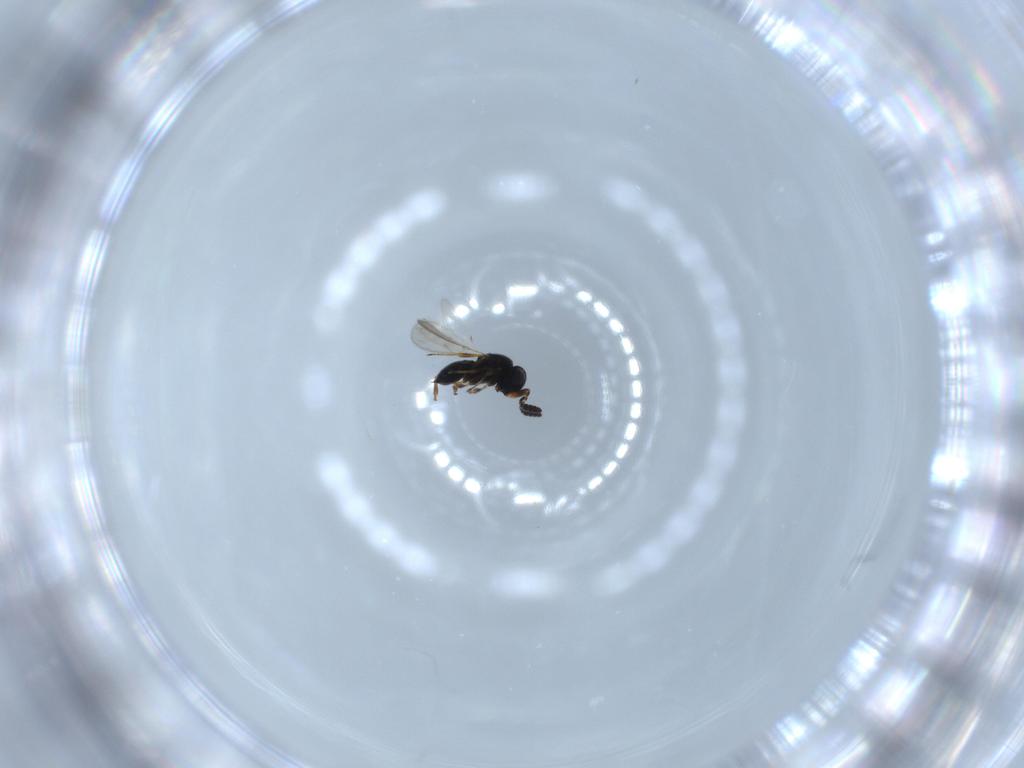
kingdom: Animalia
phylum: Arthropoda
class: Insecta
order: Hymenoptera
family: Scelionidae
